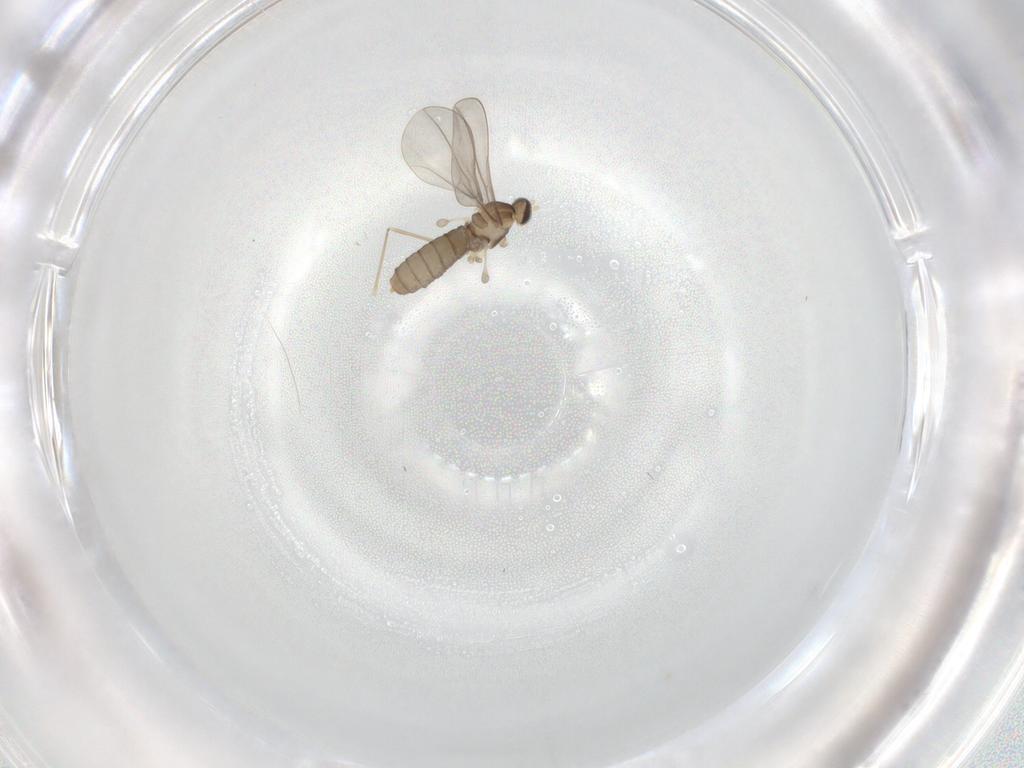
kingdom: Animalia
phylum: Arthropoda
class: Insecta
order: Diptera
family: Cecidomyiidae
